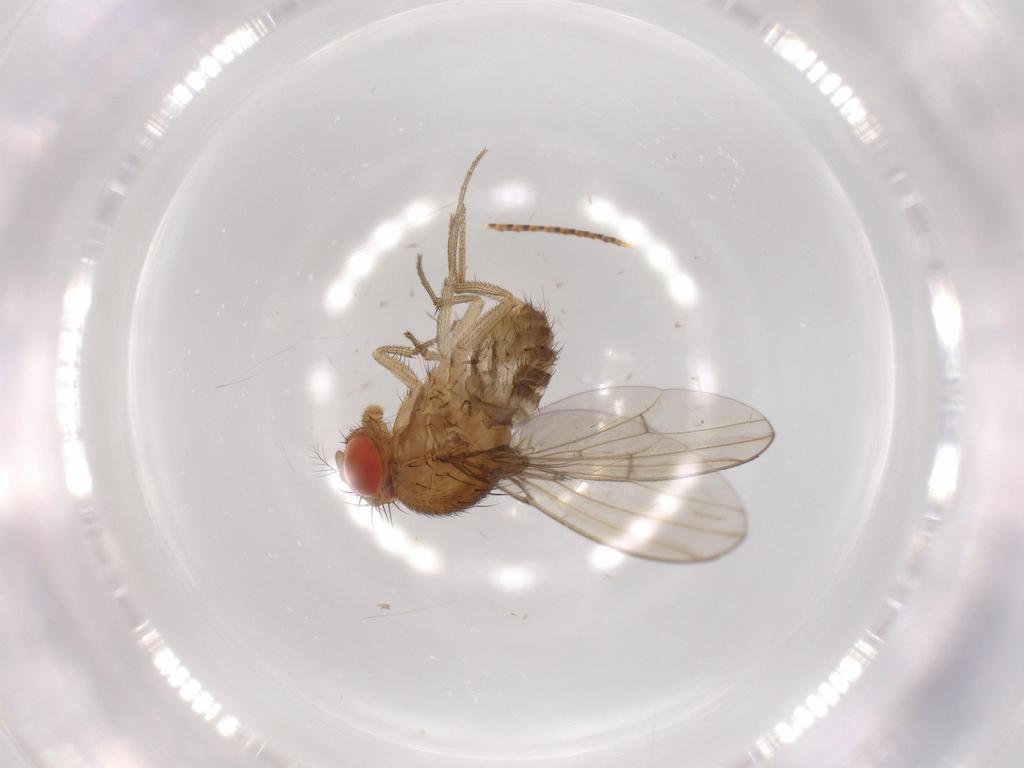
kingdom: Animalia
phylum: Arthropoda
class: Insecta
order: Diptera
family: Drosophilidae
